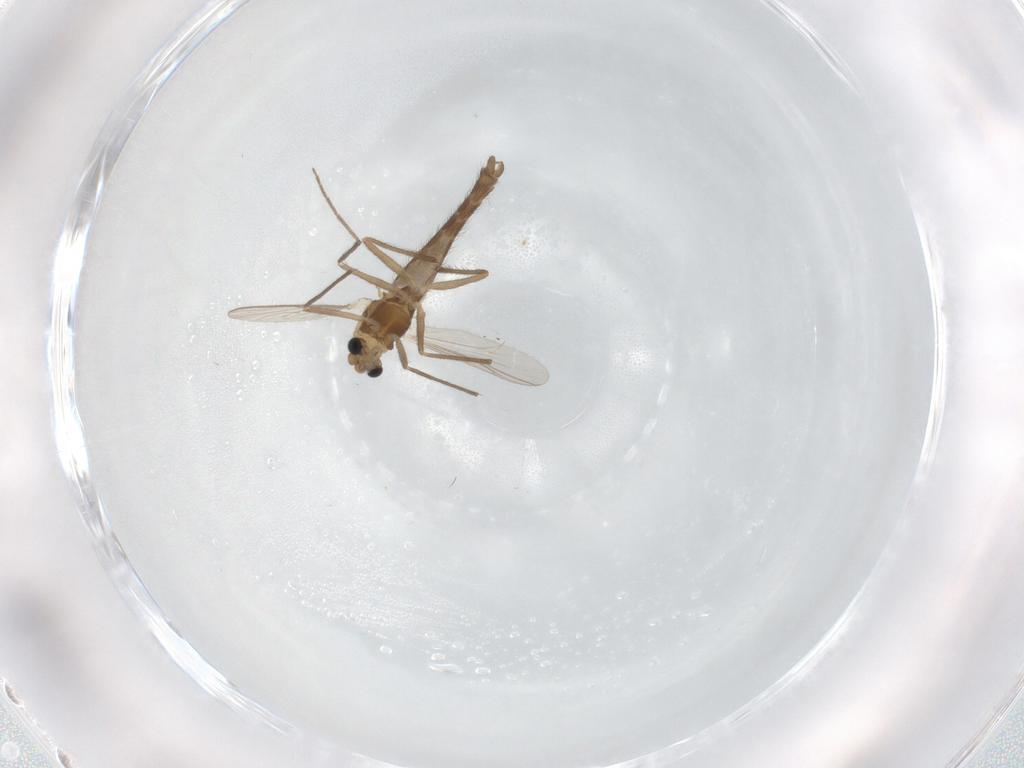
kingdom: Animalia
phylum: Arthropoda
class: Insecta
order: Diptera
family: Chironomidae
